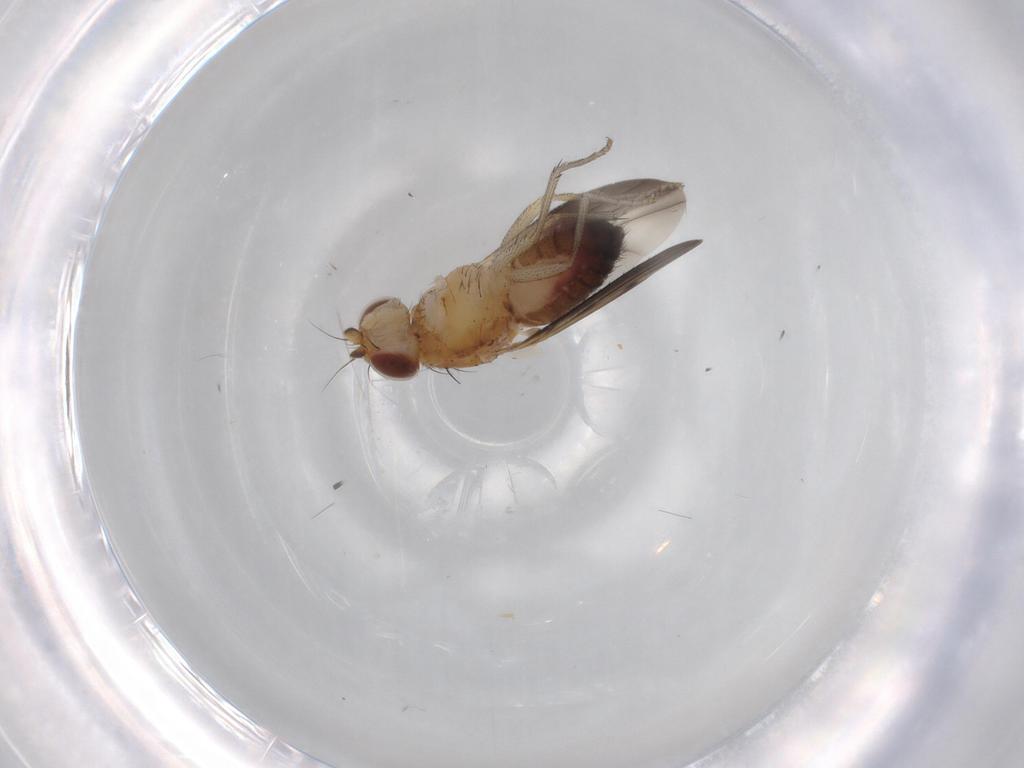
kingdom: Animalia
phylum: Arthropoda
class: Insecta
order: Diptera
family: Heleomyzidae
